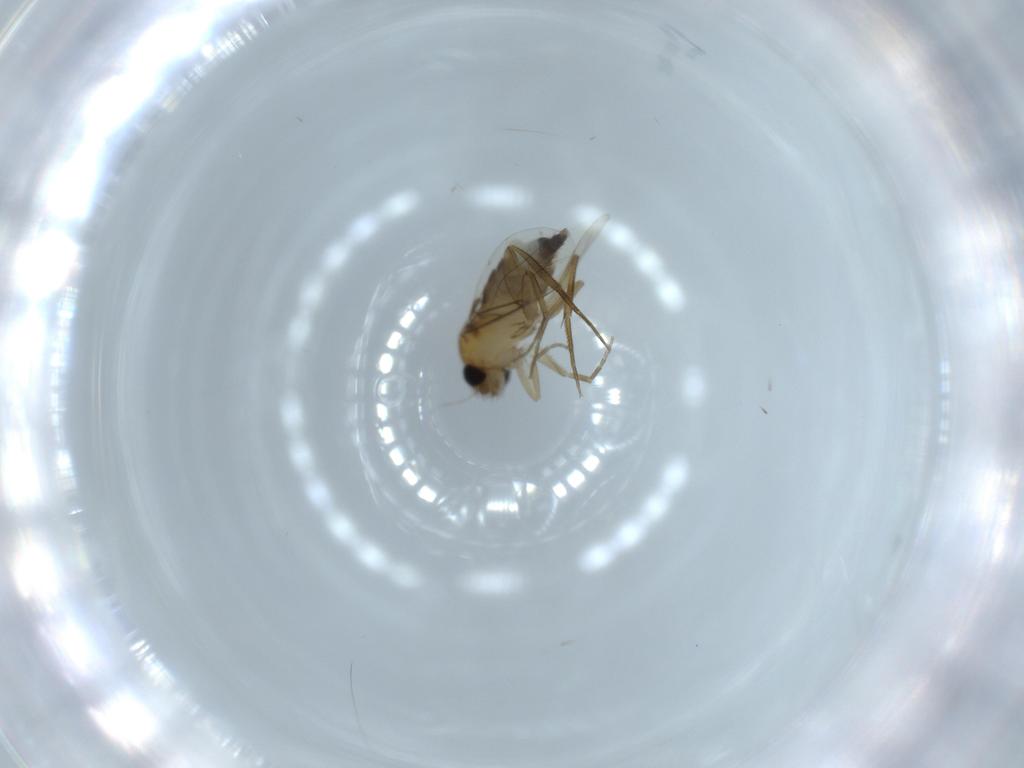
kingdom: Animalia
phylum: Arthropoda
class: Insecta
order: Diptera
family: Phoridae
